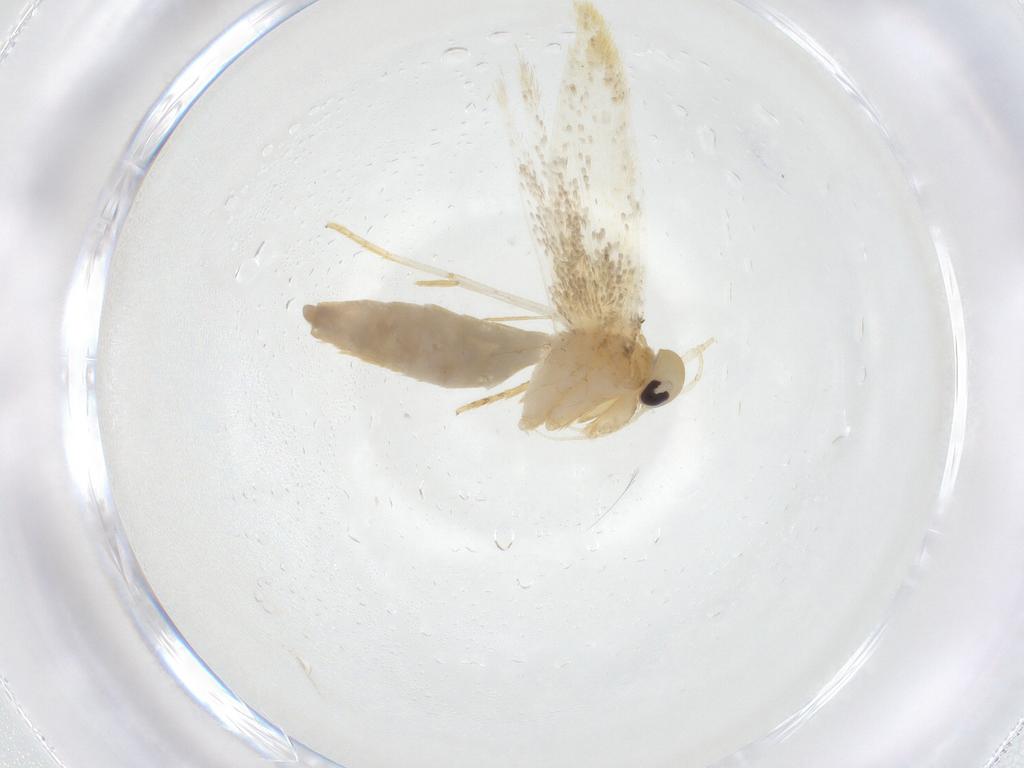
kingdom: Animalia
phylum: Arthropoda
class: Insecta
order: Lepidoptera
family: Erebidae
